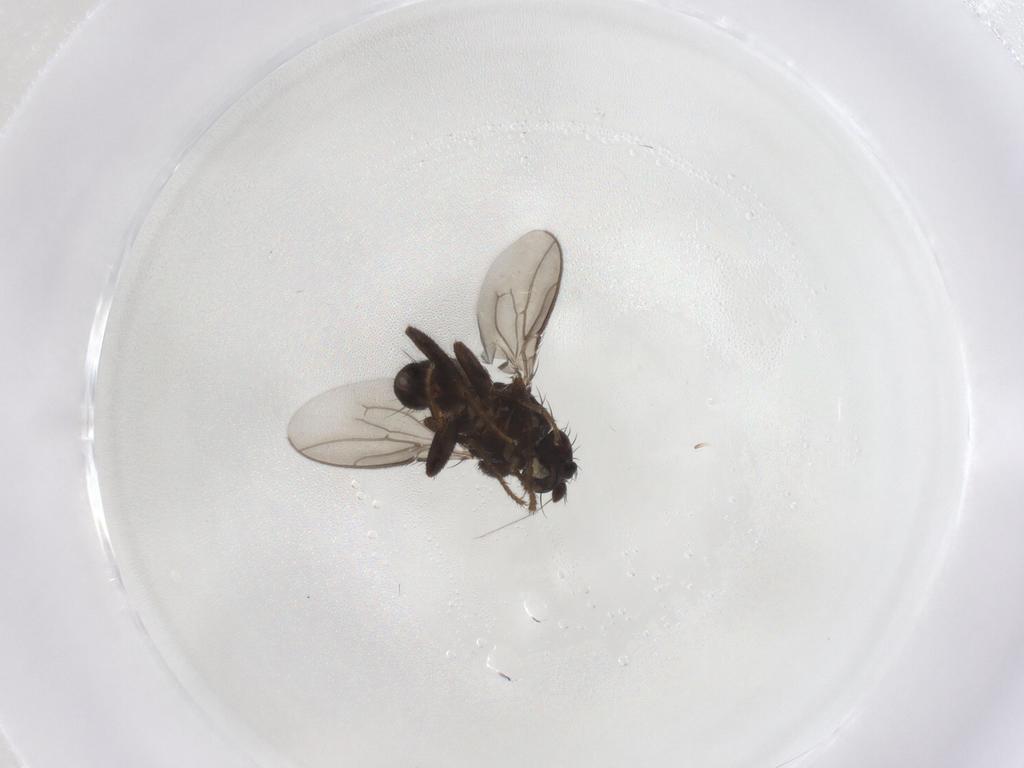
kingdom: Animalia
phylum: Arthropoda
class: Insecta
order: Diptera
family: Sphaeroceridae
